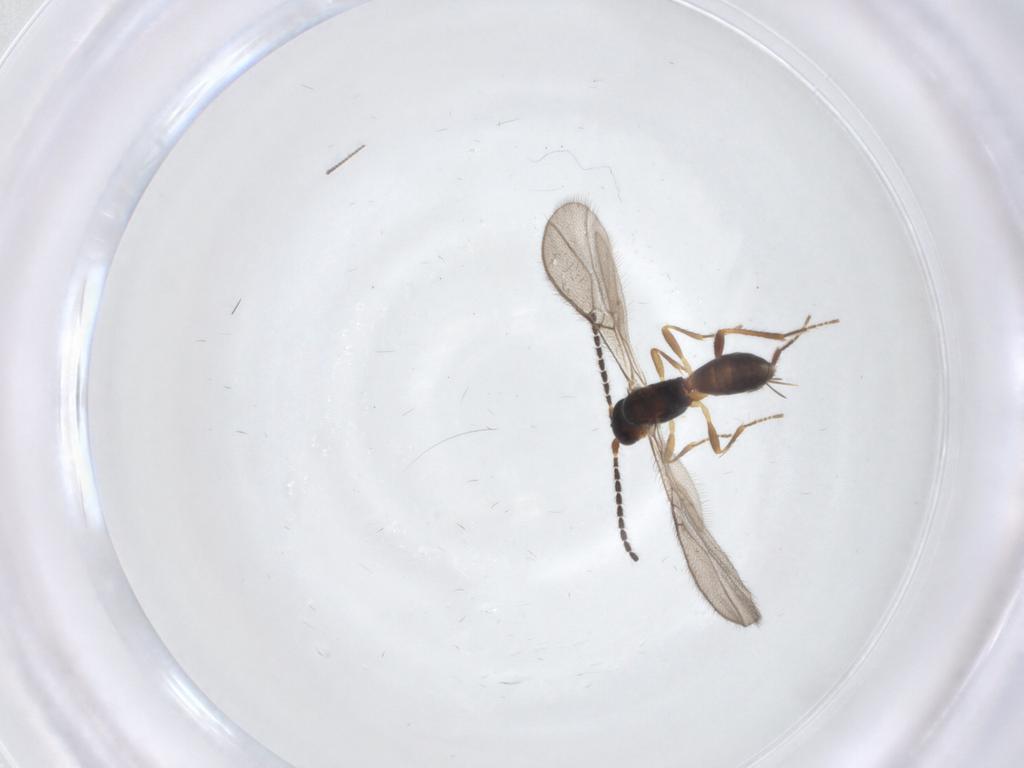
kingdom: Animalia
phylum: Arthropoda
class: Insecta
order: Hymenoptera
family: Braconidae
